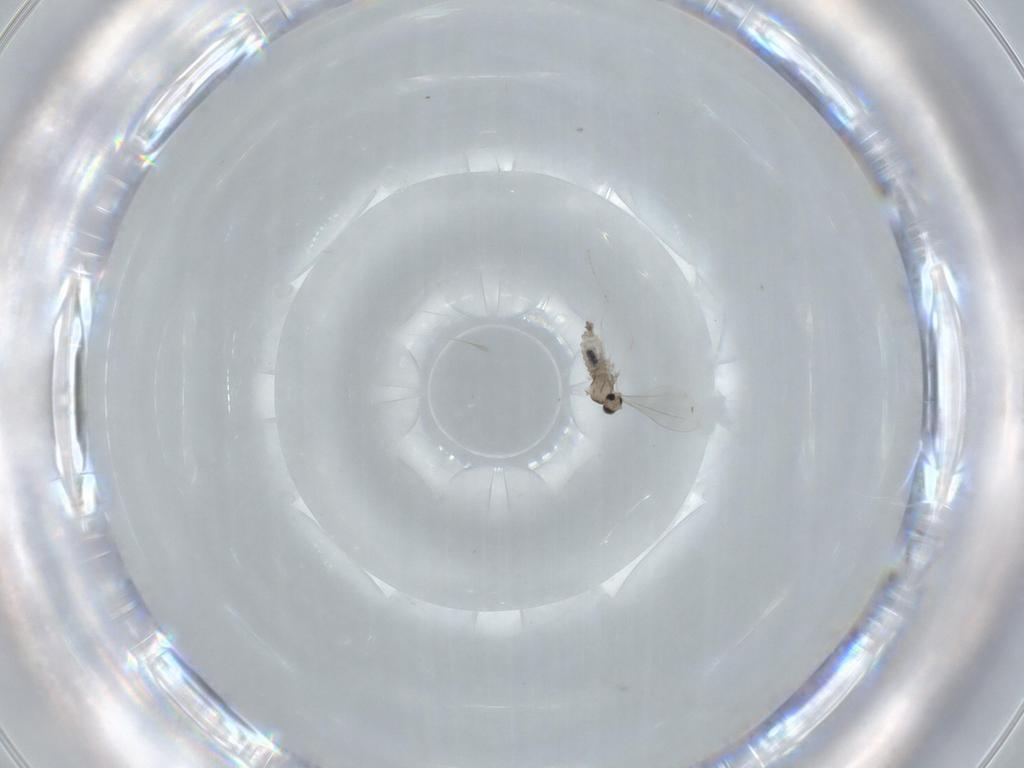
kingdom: Animalia
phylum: Arthropoda
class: Insecta
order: Diptera
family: Cecidomyiidae
